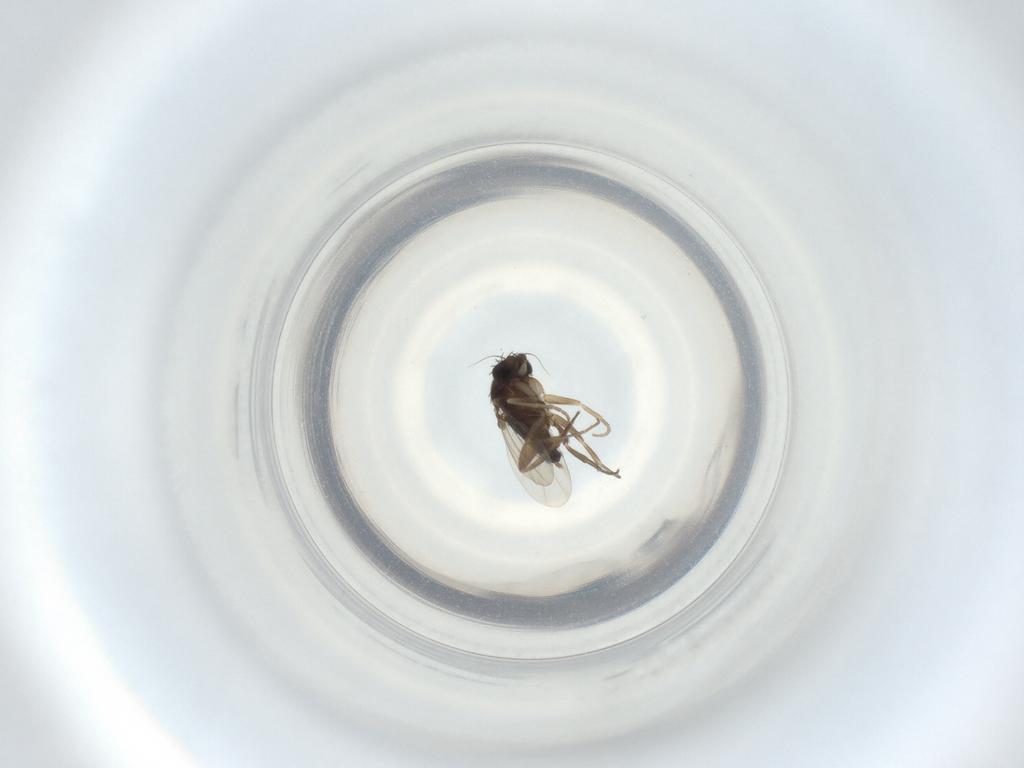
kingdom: Animalia
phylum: Arthropoda
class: Insecta
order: Diptera
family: Phoridae
